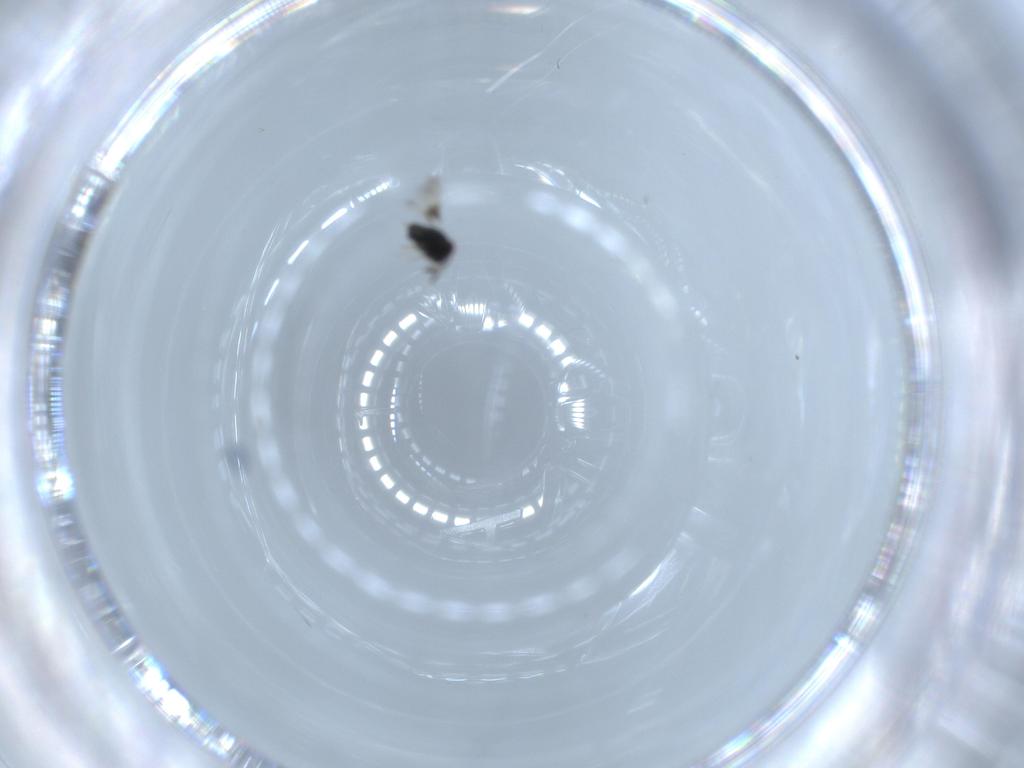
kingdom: Animalia
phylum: Arthropoda
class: Insecta
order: Hymenoptera
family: Azotidae
